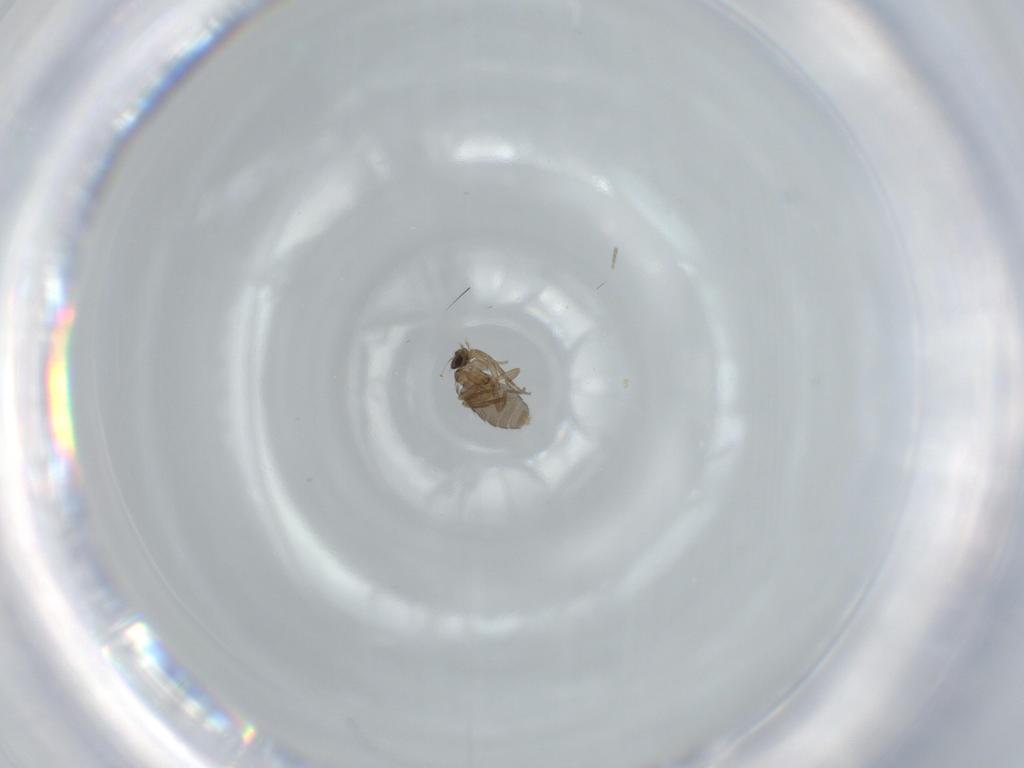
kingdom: Animalia
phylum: Arthropoda
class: Insecta
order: Diptera
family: Phoridae
